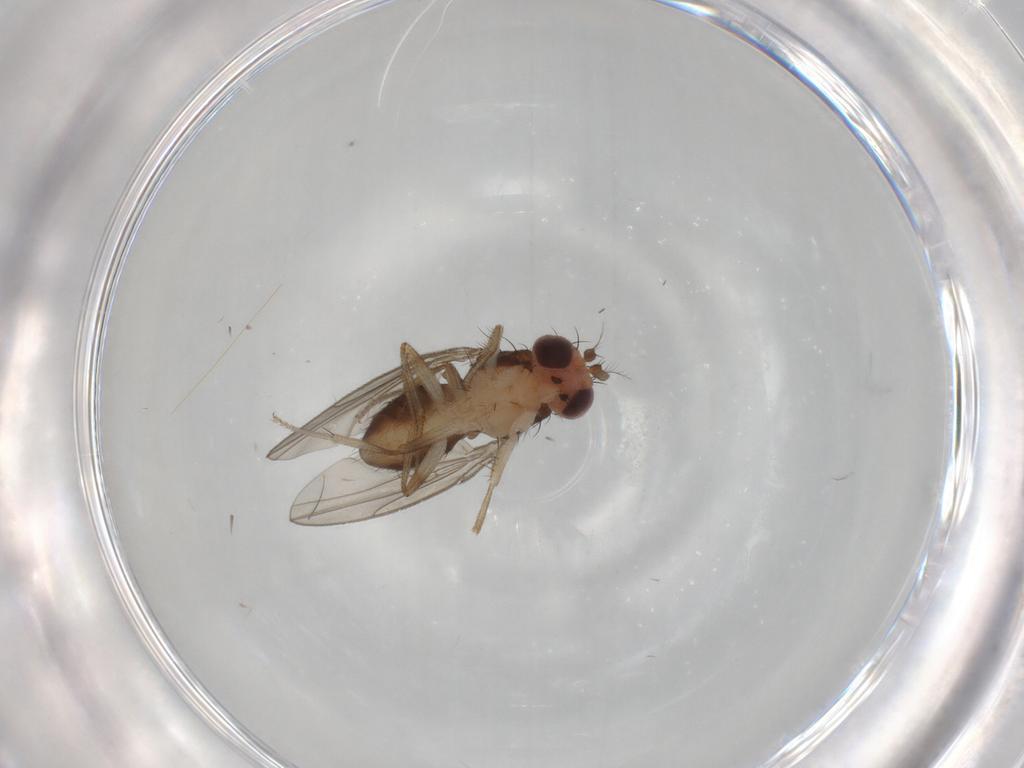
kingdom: Animalia
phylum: Arthropoda
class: Insecta
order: Diptera
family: Drosophilidae
